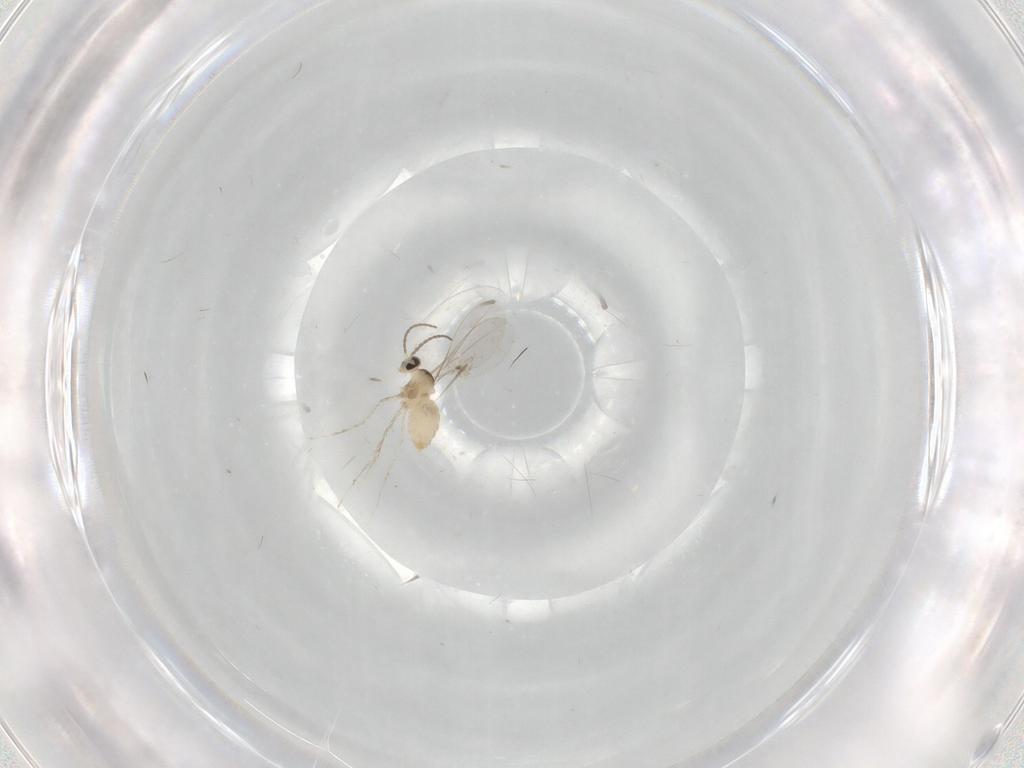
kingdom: Animalia
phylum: Arthropoda
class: Insecta
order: Diptera
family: Cecidomyiidae
